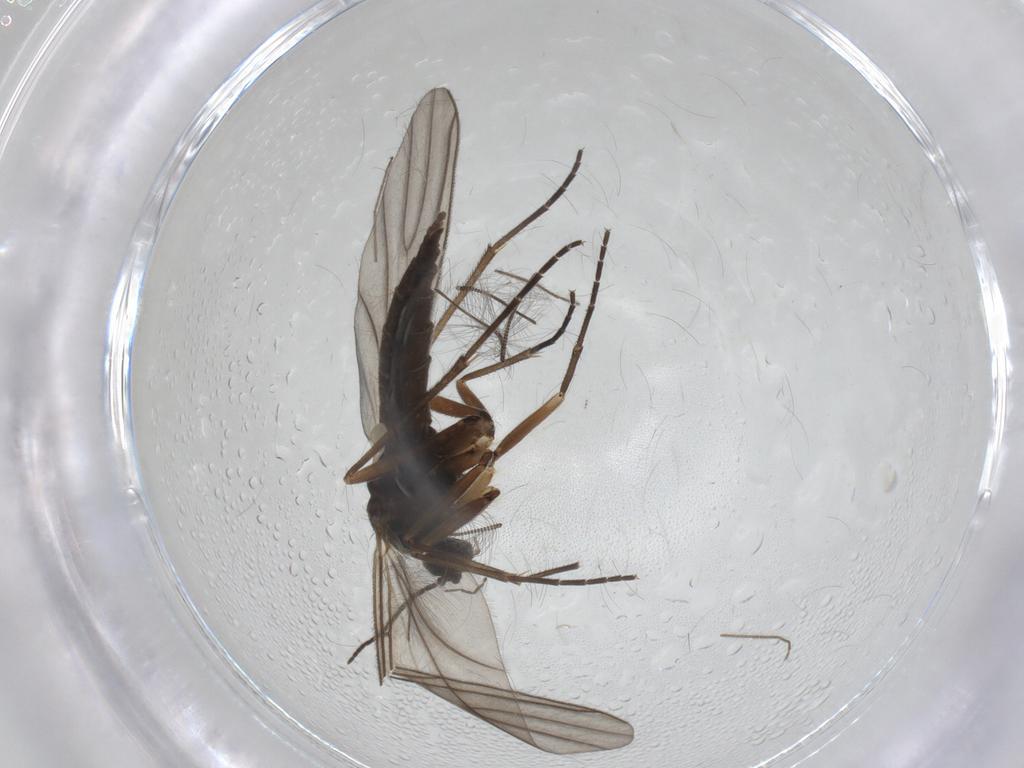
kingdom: Animalia
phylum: Arthropoda
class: Insecta
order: Diptera
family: Sciaridae
